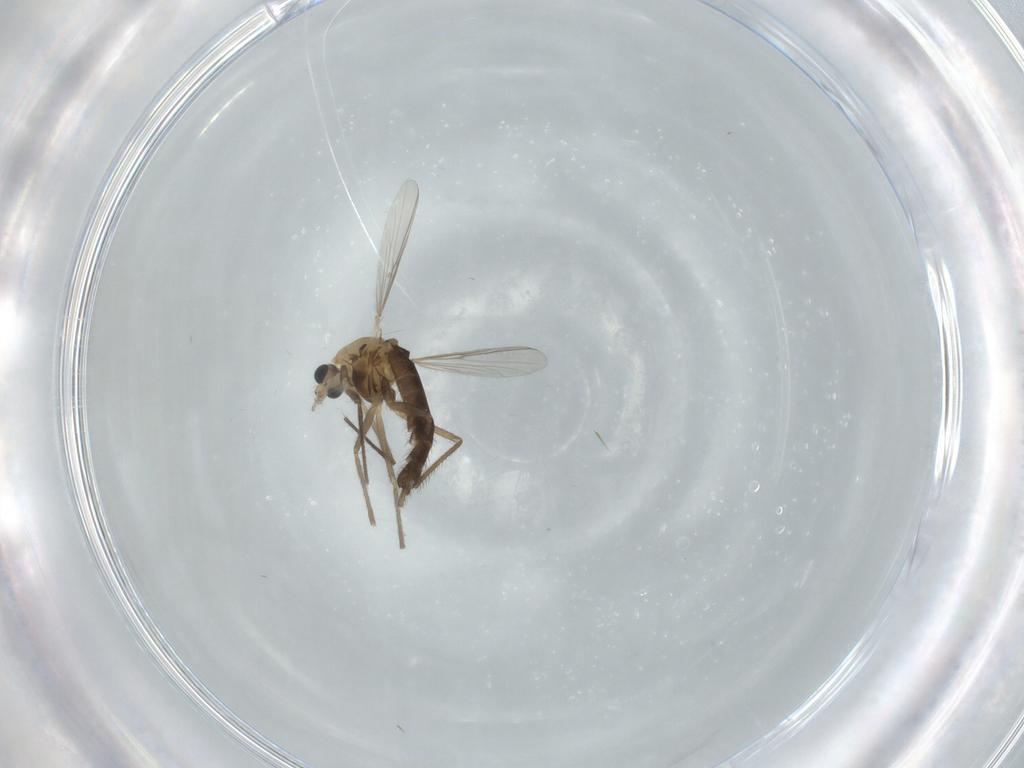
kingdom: Animalia
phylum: Arthropoda
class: Insecta
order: Diptera
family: Chironomidae
